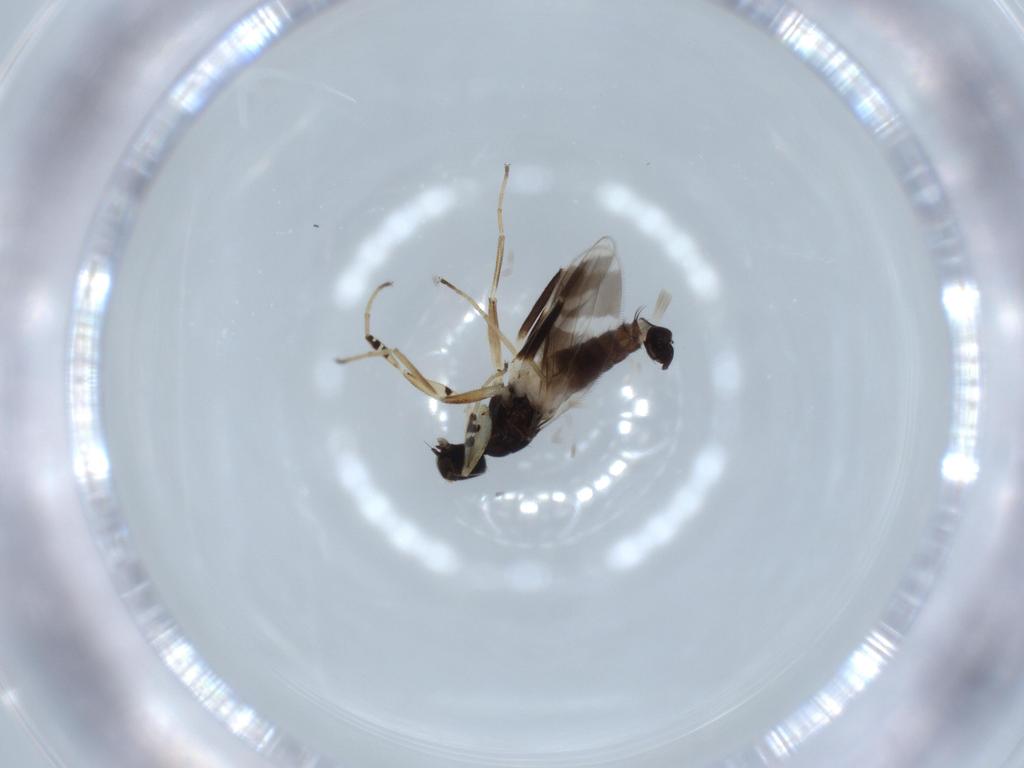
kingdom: Animalia
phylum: Arthropoda
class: Insecta
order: Diptera
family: Hybotidae
